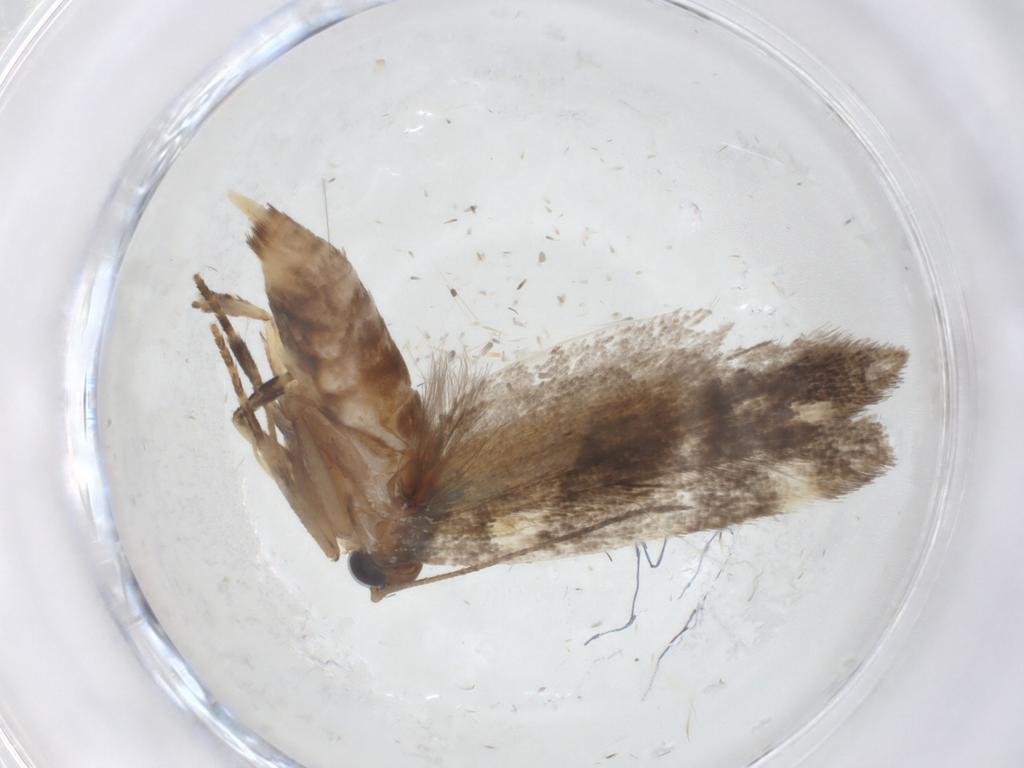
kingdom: Animalia
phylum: Arthropoda
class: Insecta
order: Lepidoptera
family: Gelechiidae
